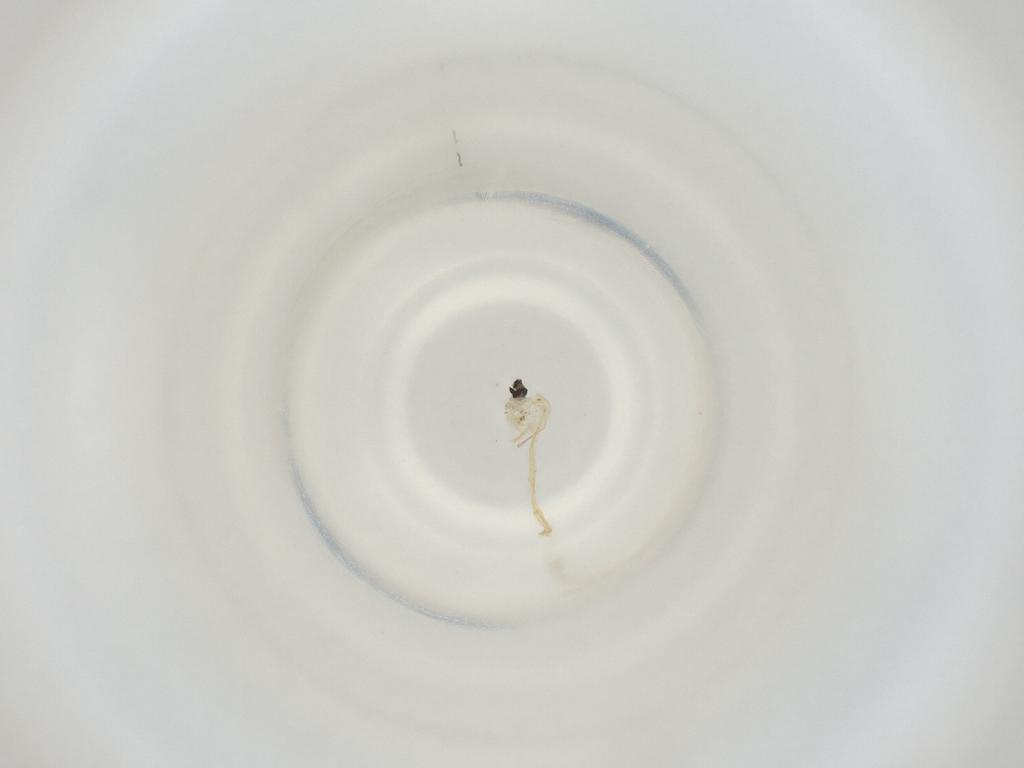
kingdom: Animalia
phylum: Arthropoda
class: Insecta
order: Diptera
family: Cecidomyiidae
